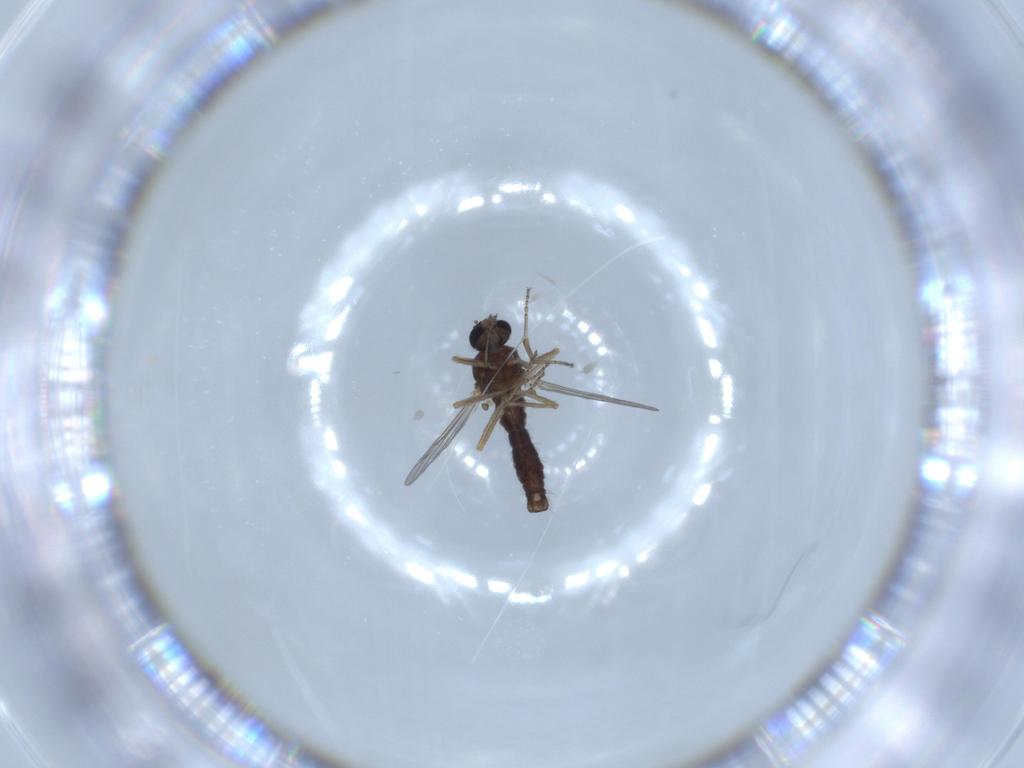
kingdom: Animalia
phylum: Arthropoda
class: Insecta
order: Diptera
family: Ceratopogonidae
